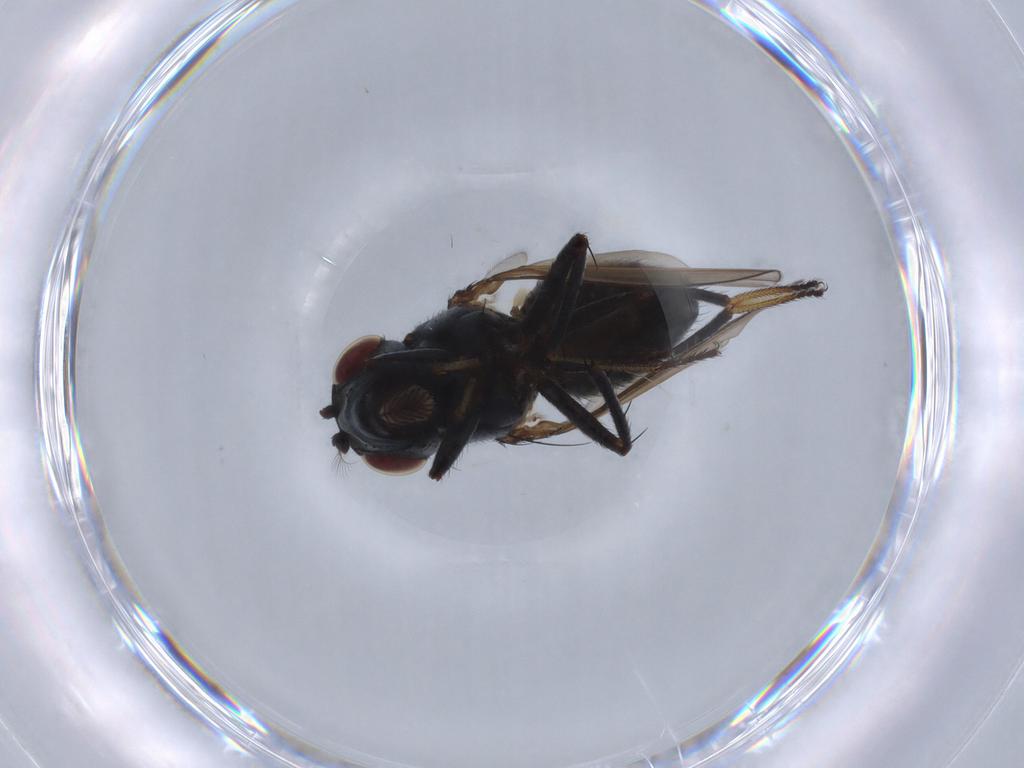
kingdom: Animalia
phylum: Arthropoda
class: Insecta
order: Diptera
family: Ephydridae
